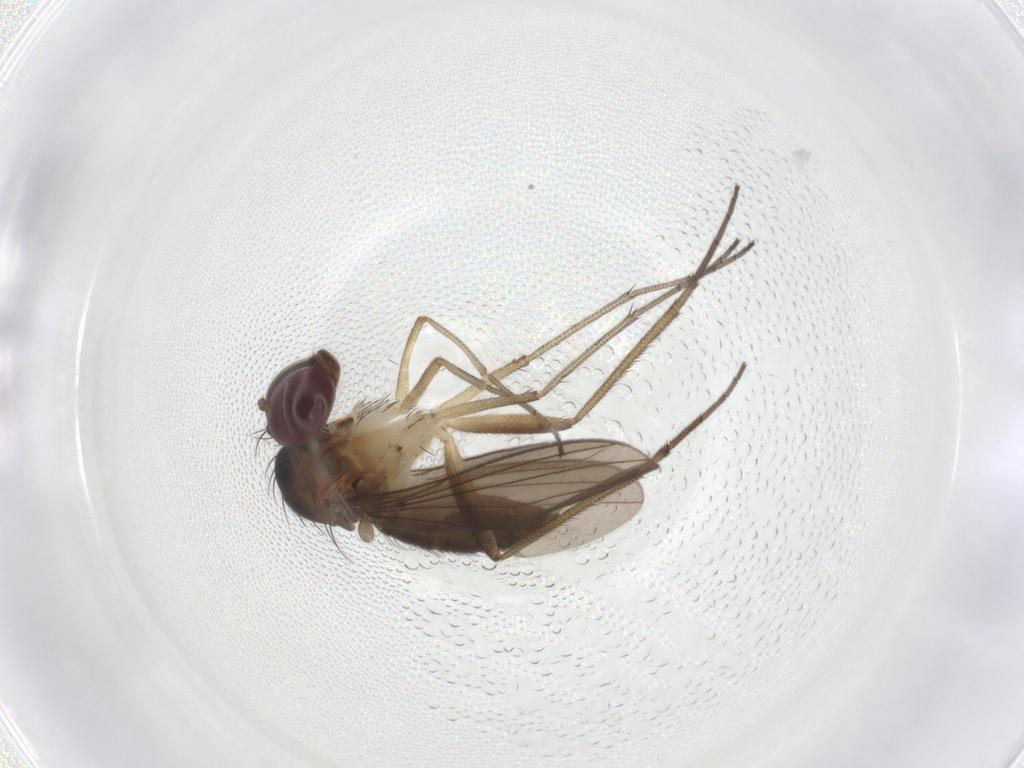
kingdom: Animalia
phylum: Arthropoda
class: Insecta
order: Diptera
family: Dolichopodidae
